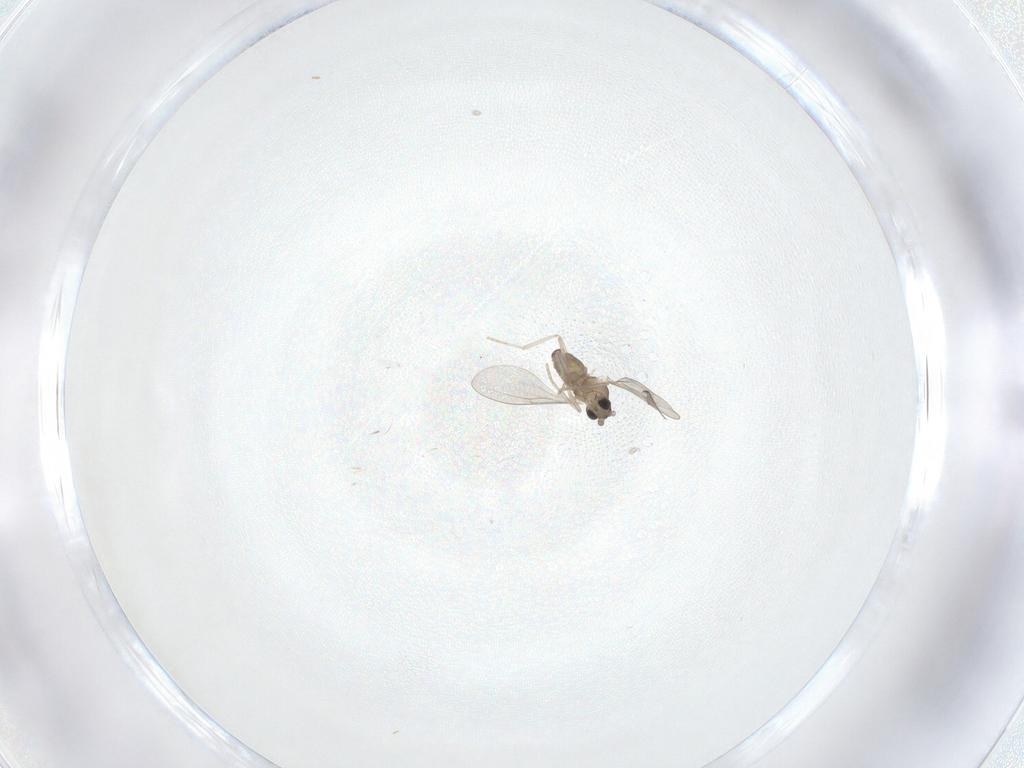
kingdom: Animalia
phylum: Arthropoda
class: Insecta
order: Diptera
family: Cecidomyiidae
